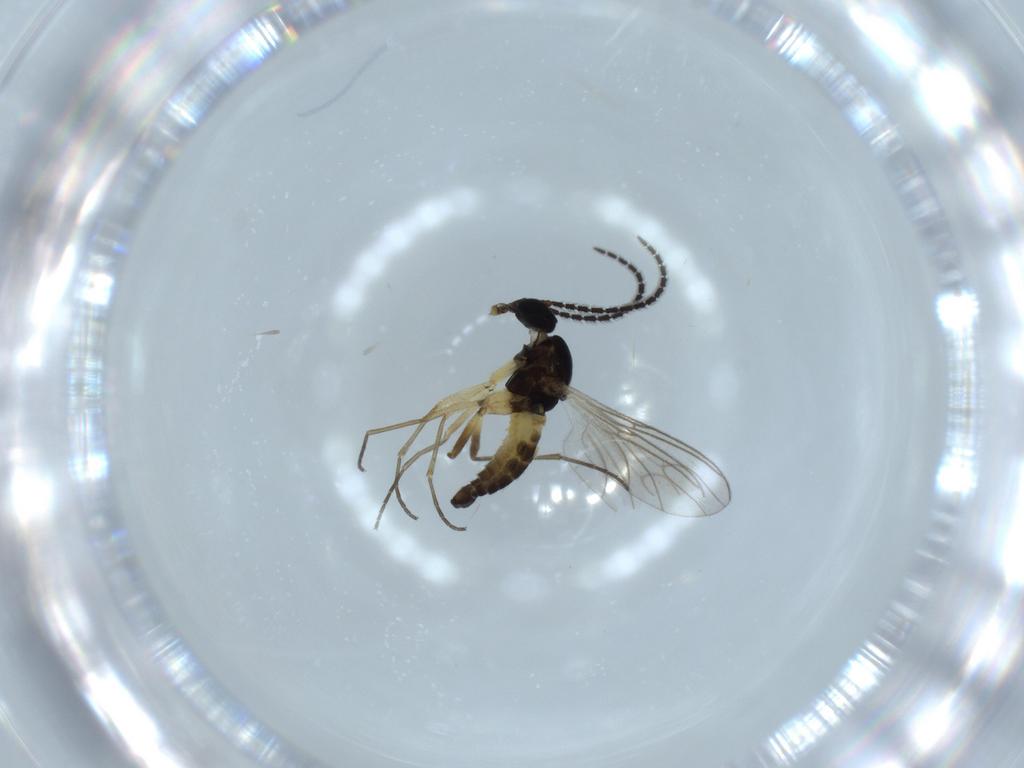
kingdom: Animalia
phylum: Arthropoda
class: Insecta
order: Diptera
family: Sciaridae
